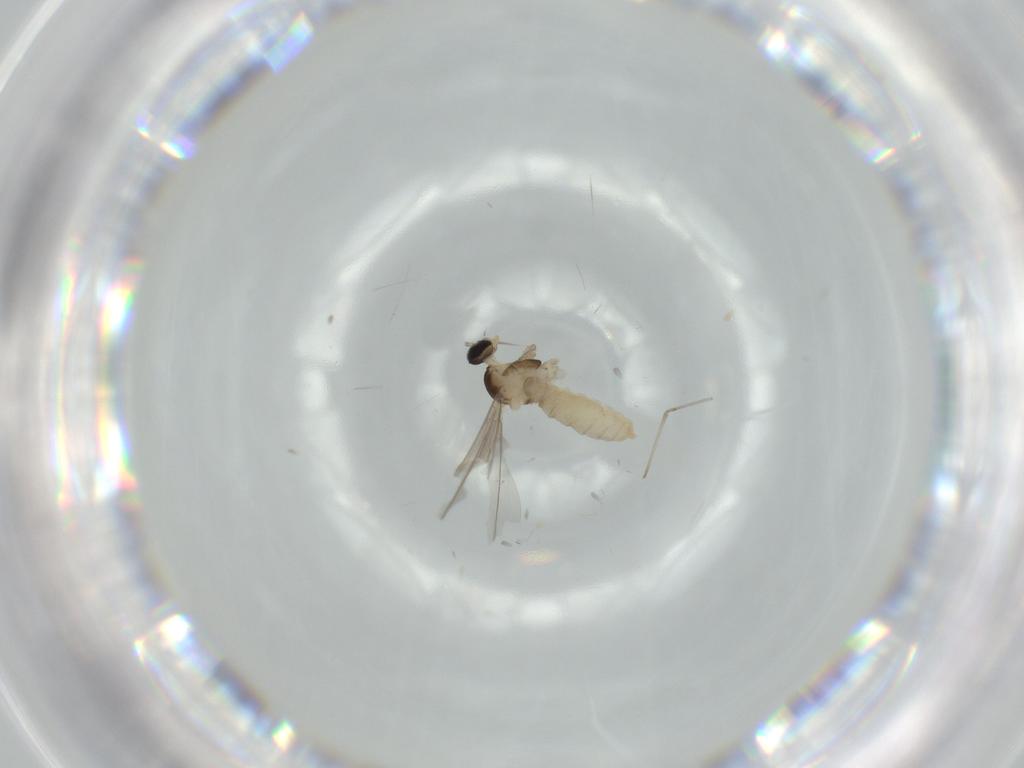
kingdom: Animalia
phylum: Arthropoda
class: Insecta
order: Diptera
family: Cecidomyiidae
